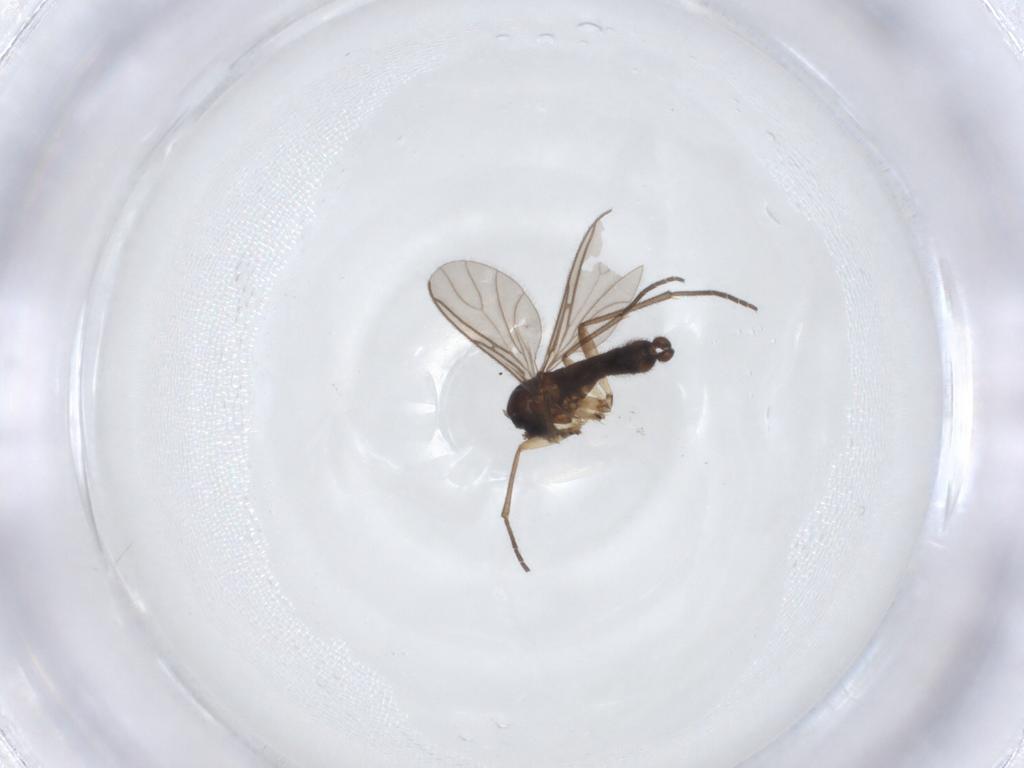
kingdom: Animalia
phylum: Arthropoda
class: Insecta
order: Diptera
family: Sciaridae
